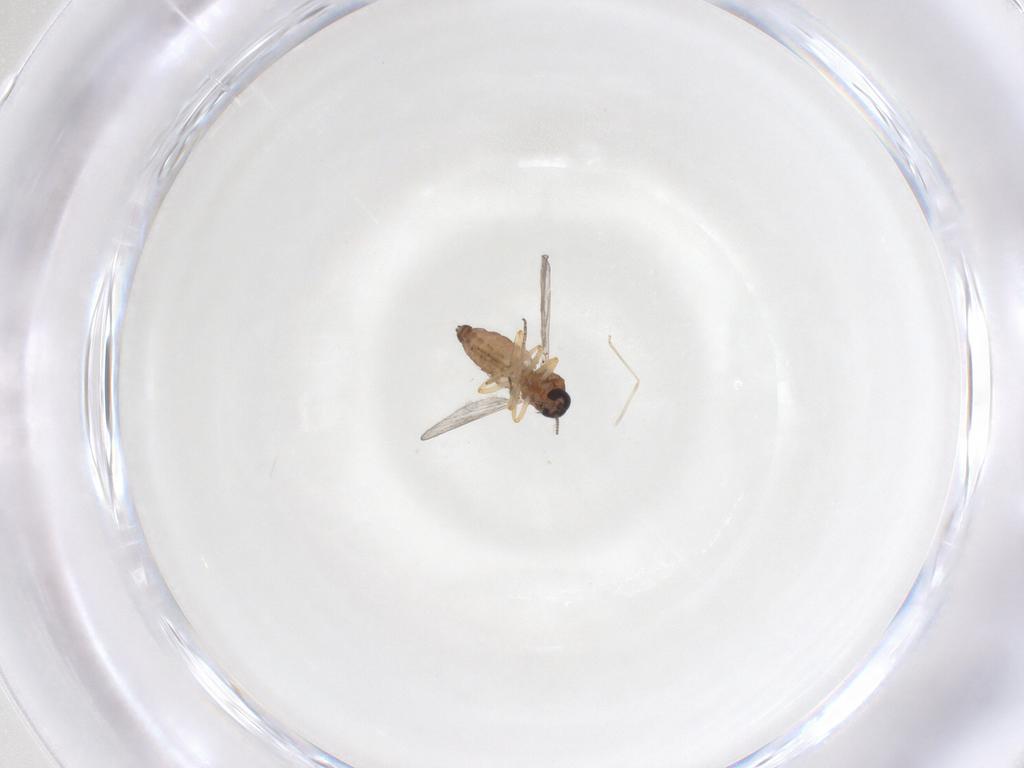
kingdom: Animalia
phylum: Arthropoda
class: Insecta
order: Diptera
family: Ceratopogonidae
